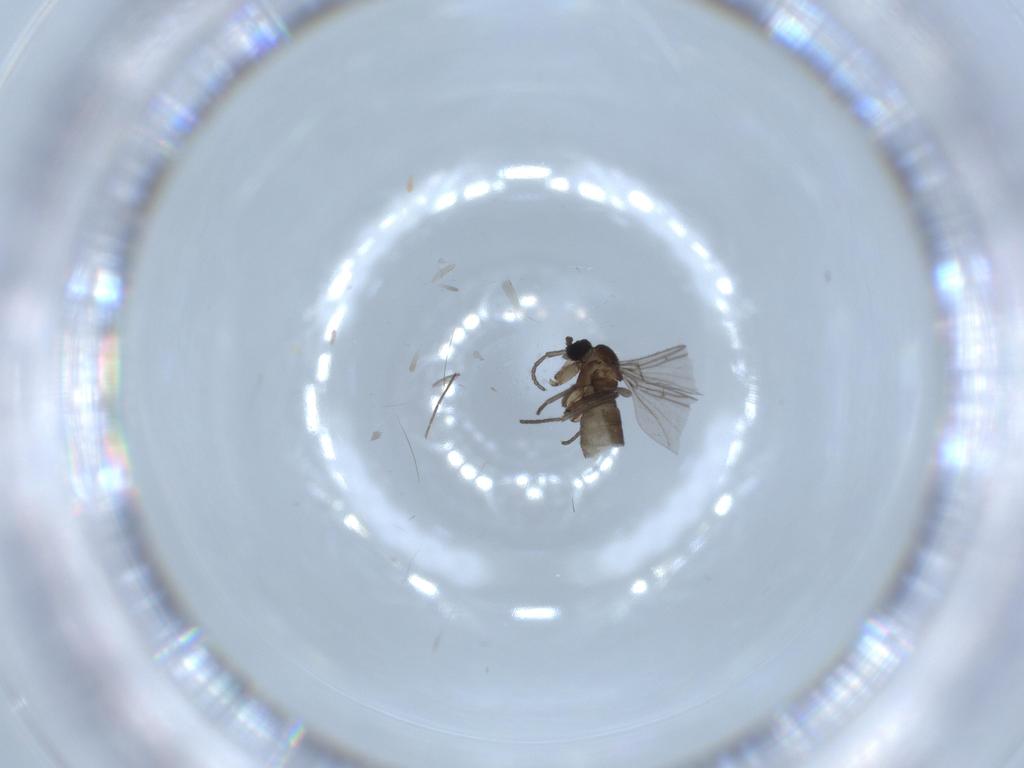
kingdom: Animalia
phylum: Arthropoda
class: Insecta
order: Diptera
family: Chironomidae
